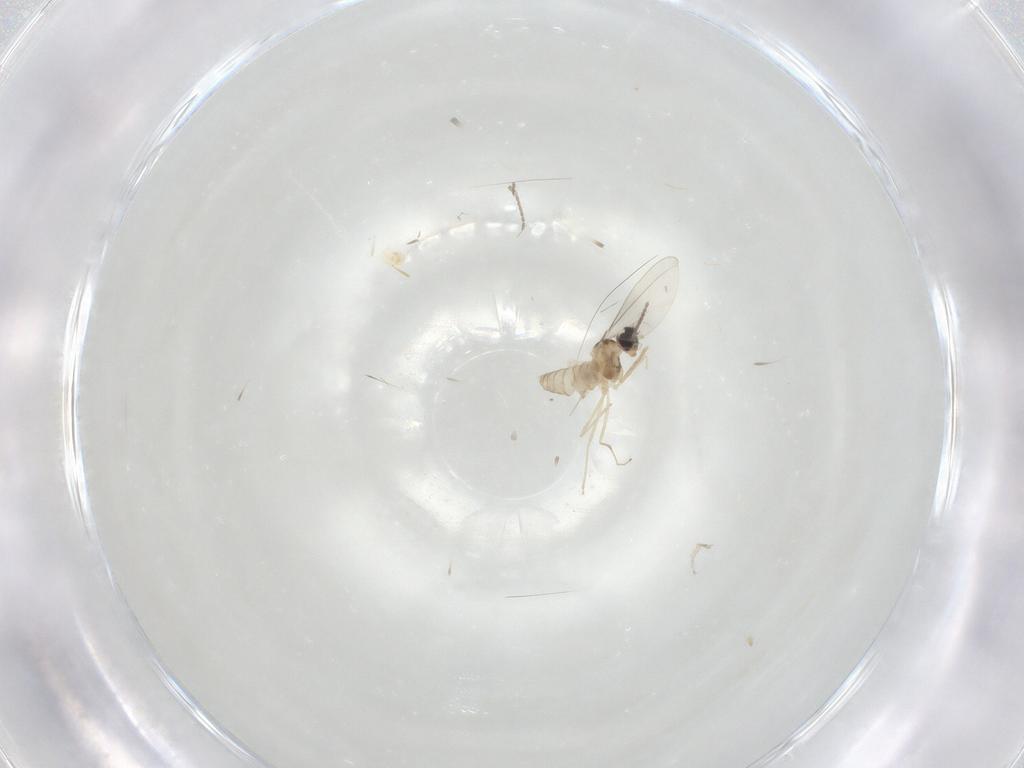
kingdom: Animalia
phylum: Arthropoda
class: Insecta
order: Diptera
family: Cecidomyiidae
